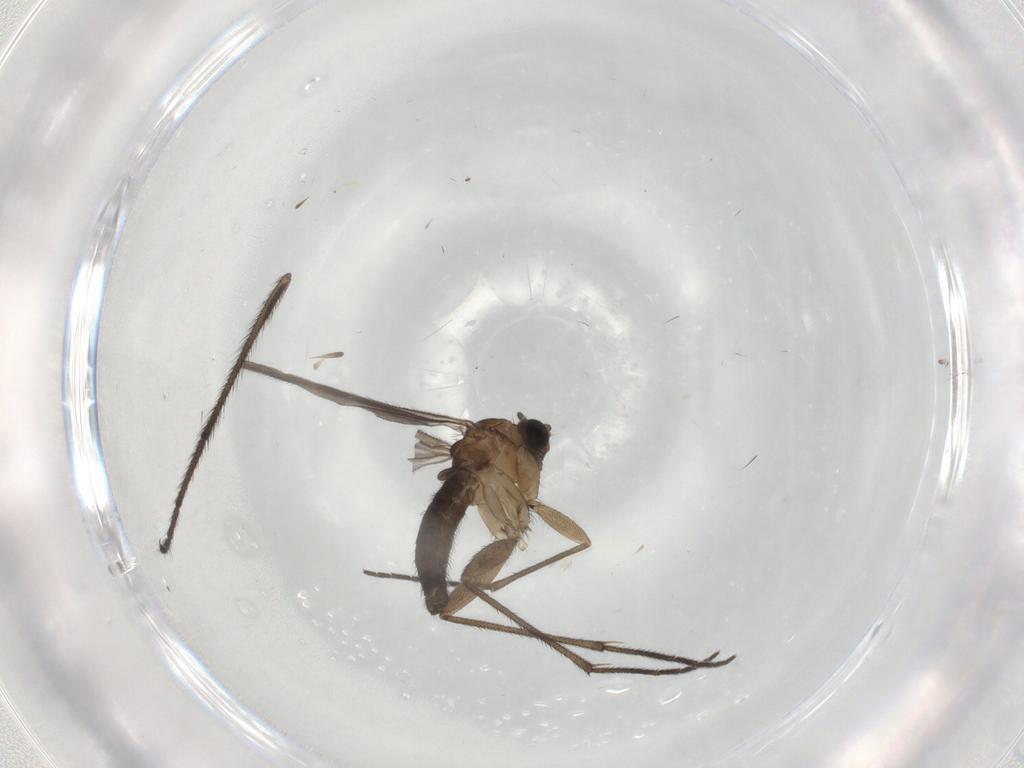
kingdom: Animalia
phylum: Arthropoda
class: Insecta
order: Diptera
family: Limoniidae
